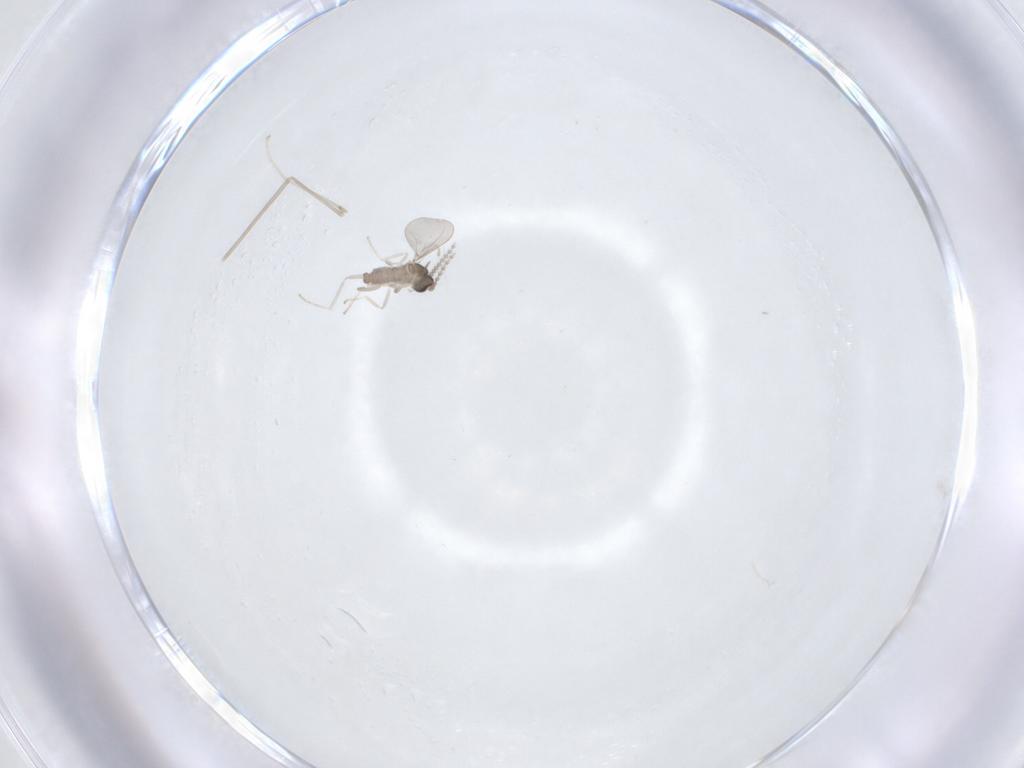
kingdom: Animalia
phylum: Arthropoda
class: Insecta
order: Diptera
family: Cecidomyiidae
